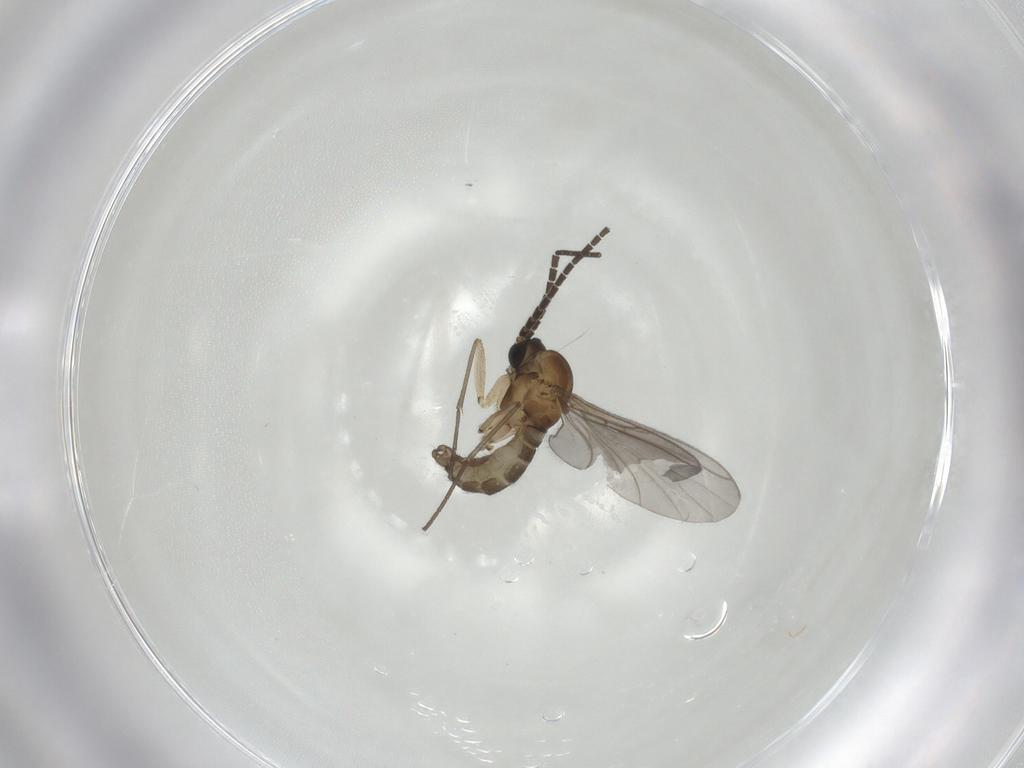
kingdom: Animalia
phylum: Arthropoda
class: Insecta
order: Diptera
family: Sciaridae
